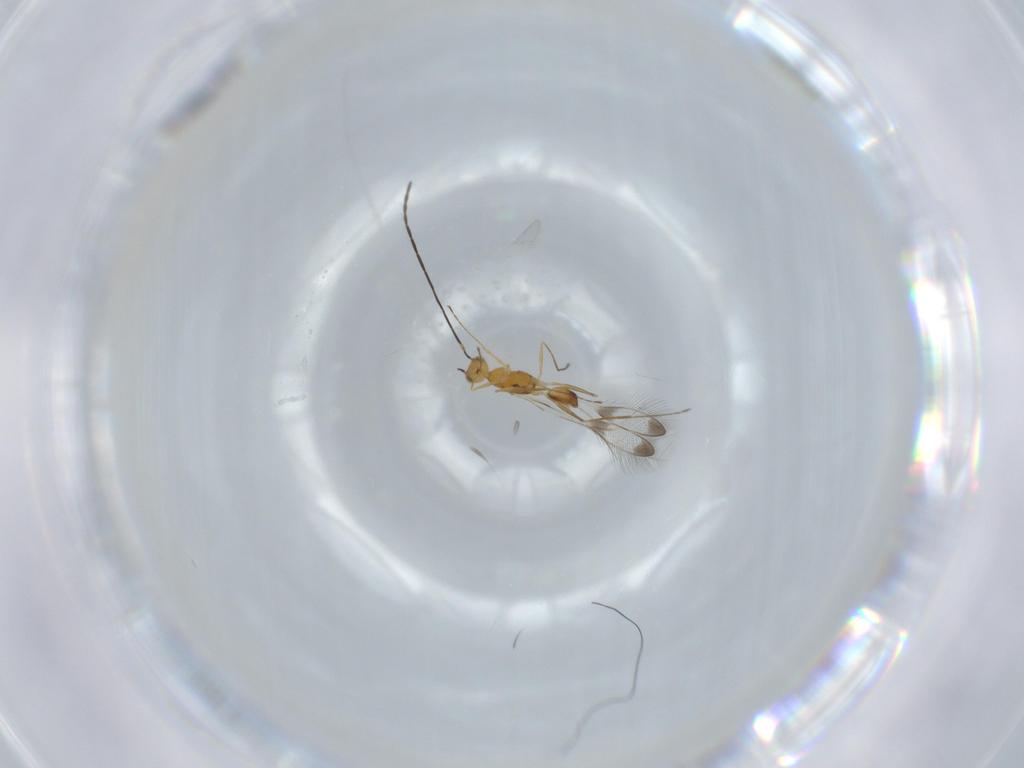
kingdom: Animalia
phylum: Arthropoda
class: Insecta
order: Hymenoptera
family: Mymaridae
